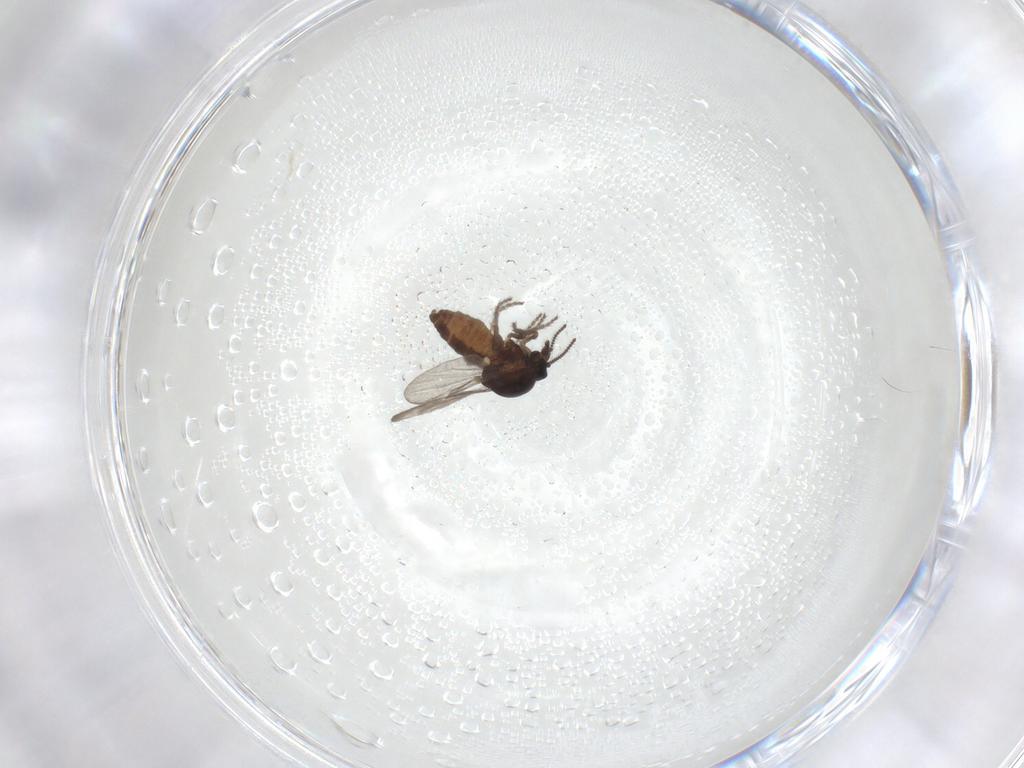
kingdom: Animalia
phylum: Arthropoda
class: Insecta
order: Diptera
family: Ceratopogonidae
